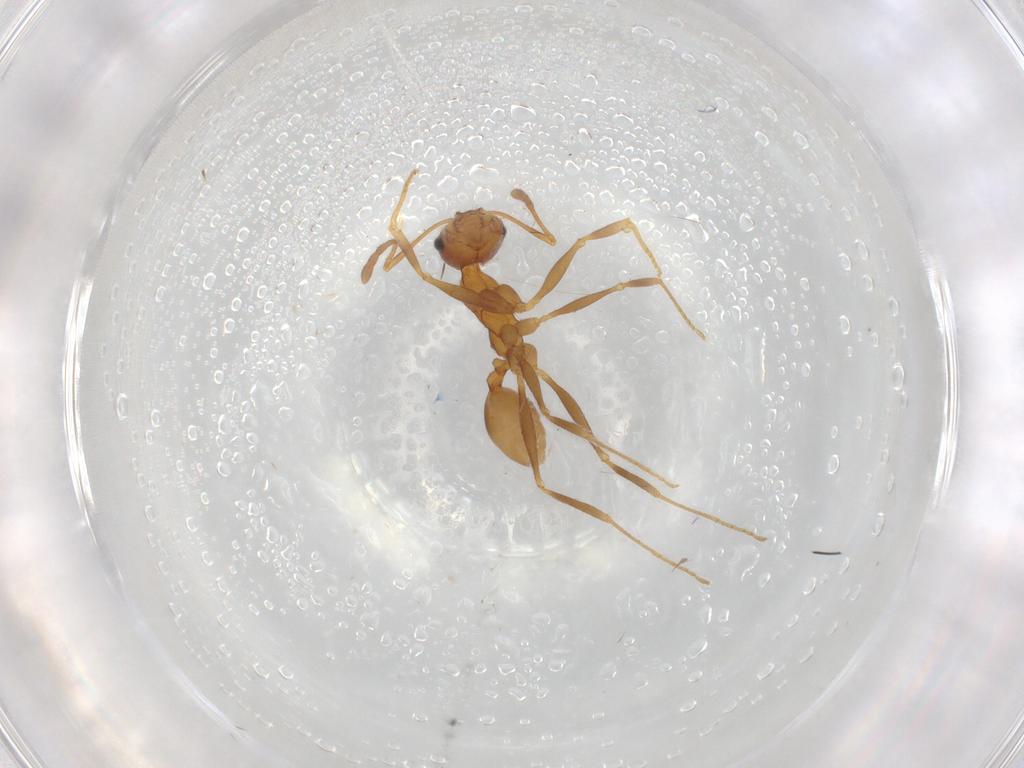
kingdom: Animalia
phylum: Arthropoda
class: Insecta
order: Hymenoptera
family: Formicidae
